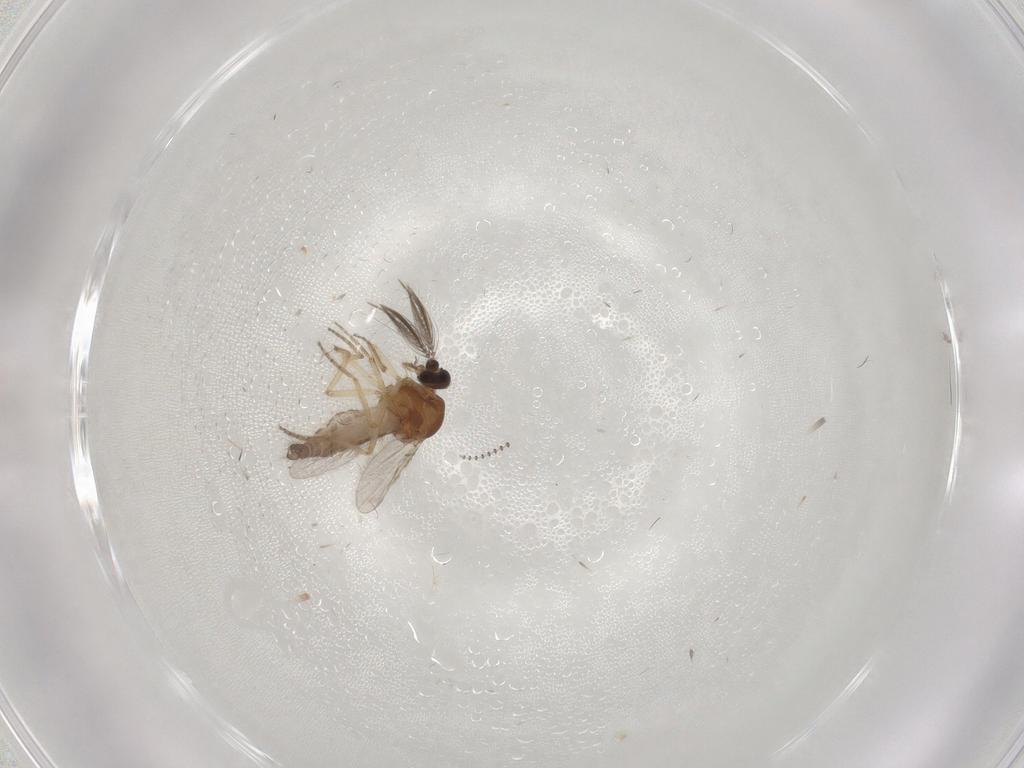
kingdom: Animalia
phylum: Arthropoda
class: Insecta
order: Diptera
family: Ceratopogonidae
